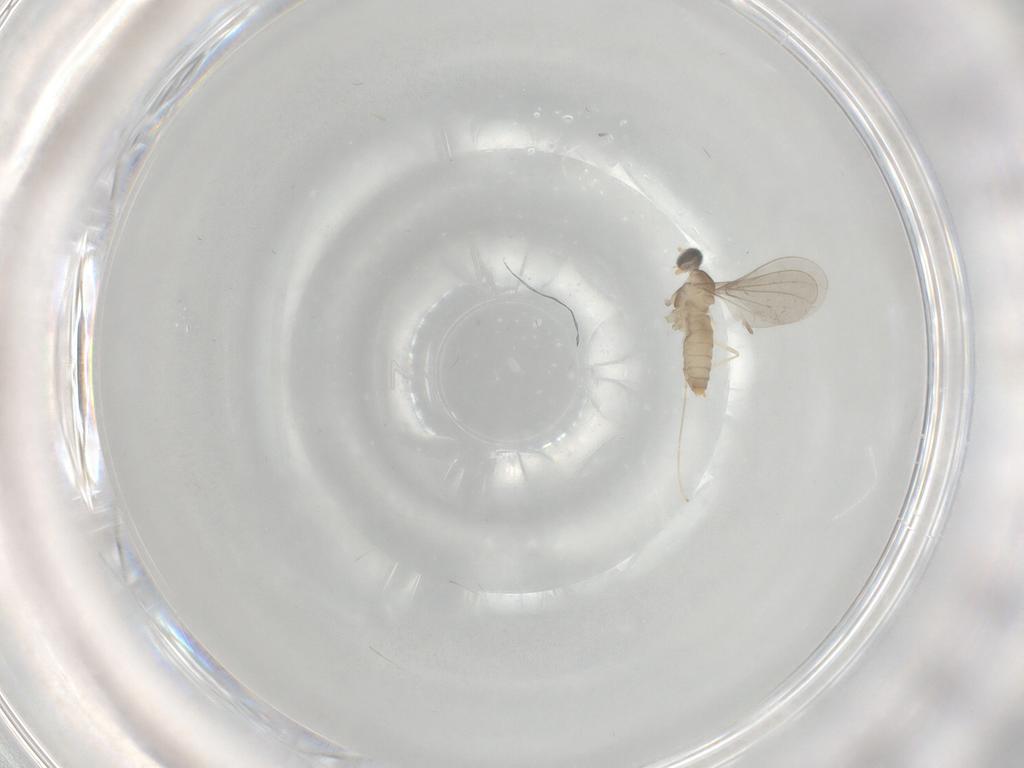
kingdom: Animalia
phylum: Arthropoda
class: Insecta
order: Diptera
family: Cecidomyiidae
